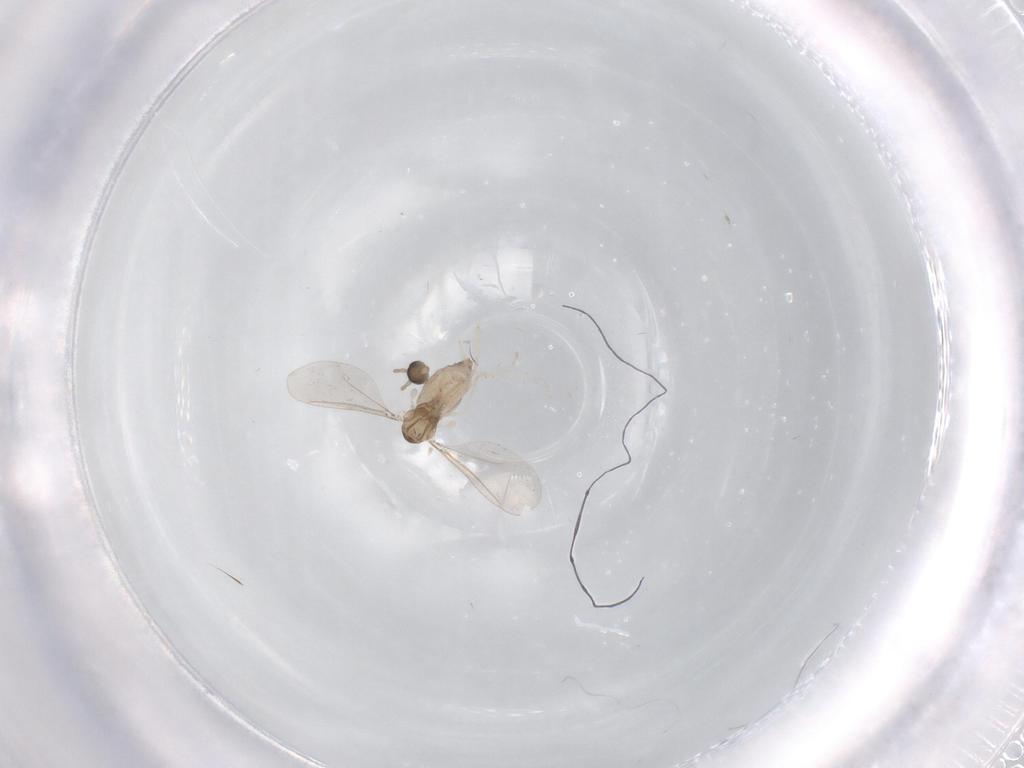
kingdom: Animalia
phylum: Arthropoda
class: Insecta
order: Diptera
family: Cecidomyiidae
